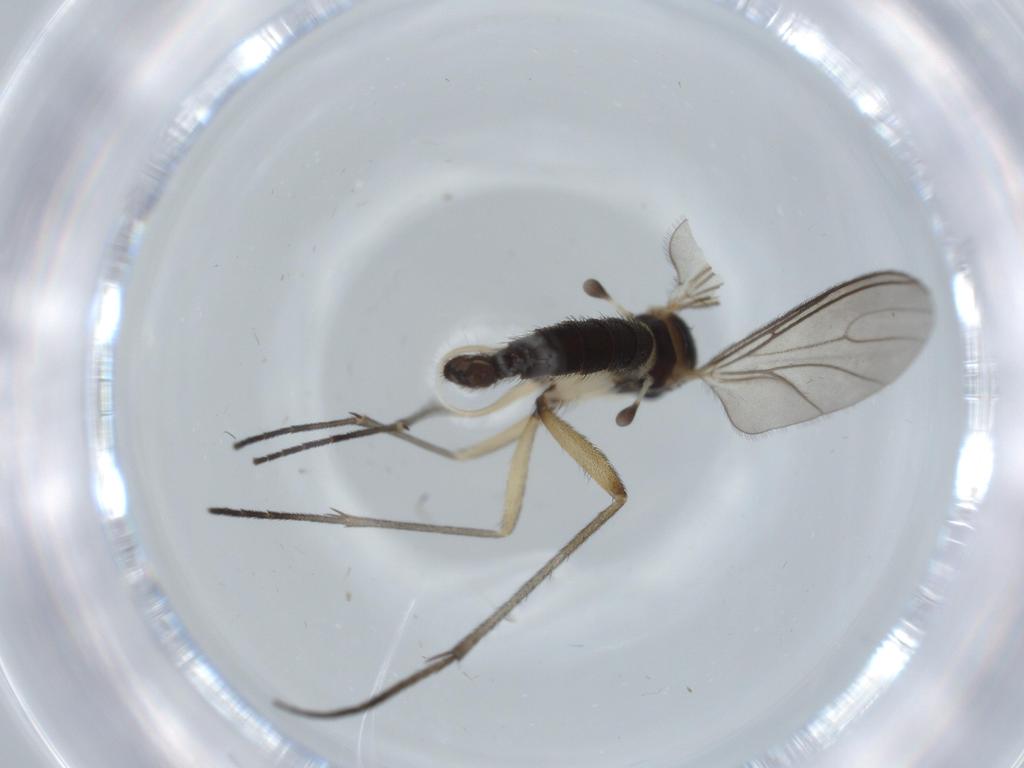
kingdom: Animalia
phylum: Arthropoda
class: Insecta
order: Diptera
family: Sciaridae
